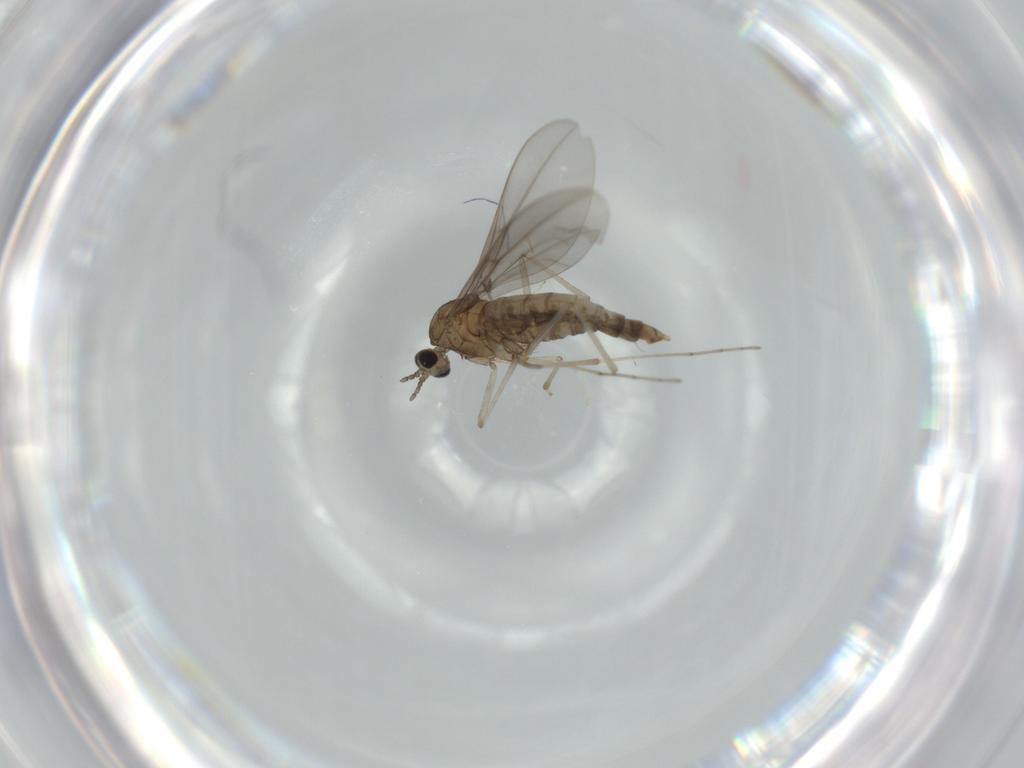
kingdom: Animalia
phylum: Arthropoda
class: Insecta
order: Diptera
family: Cecidomyiidae
